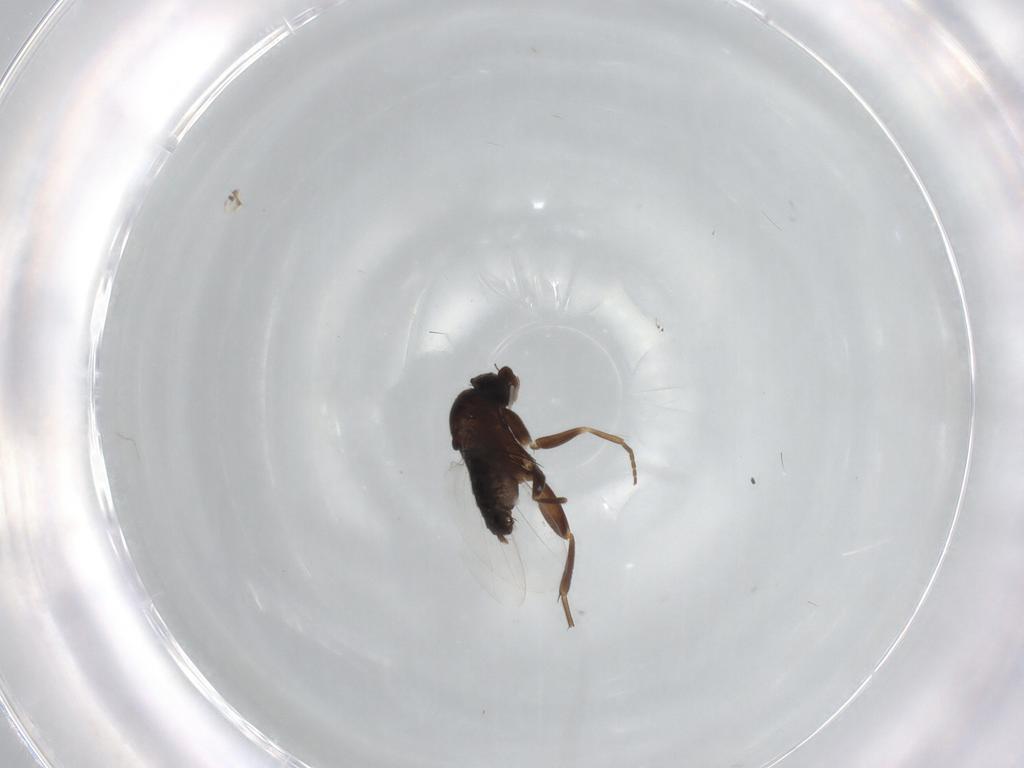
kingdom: Animalia
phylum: Arthropoda
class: Insecta
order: Diptera
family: Phoridae
